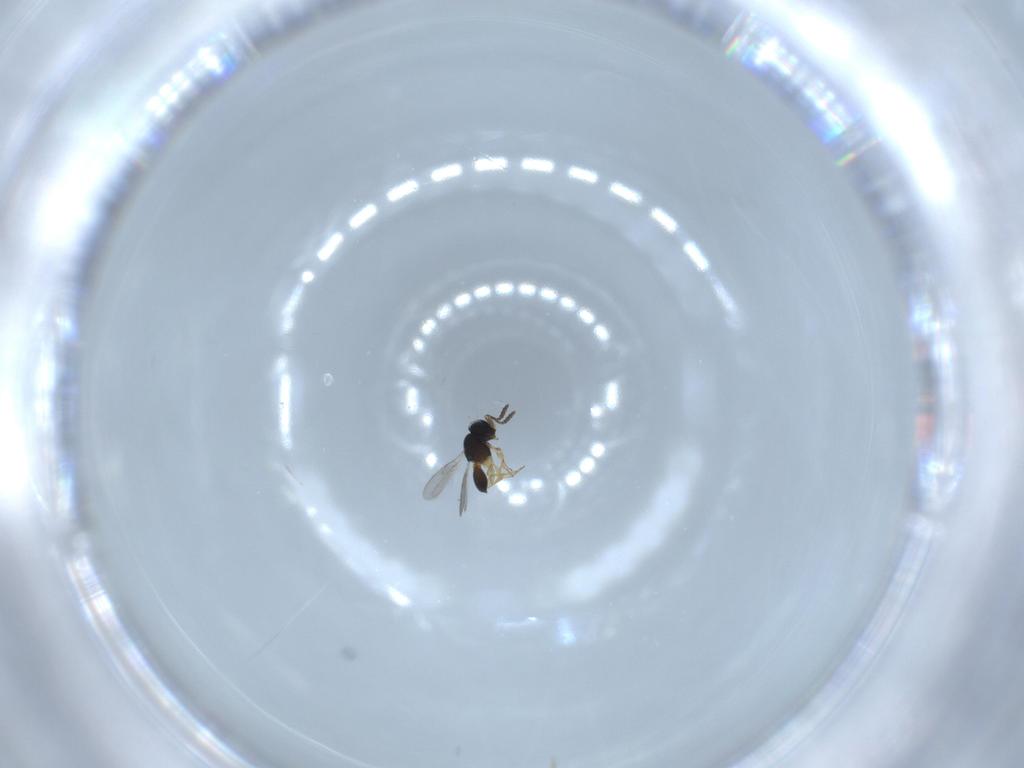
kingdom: Animalia
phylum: Arthropoda
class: Insecta
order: Hymenoptera
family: Scelionidae
